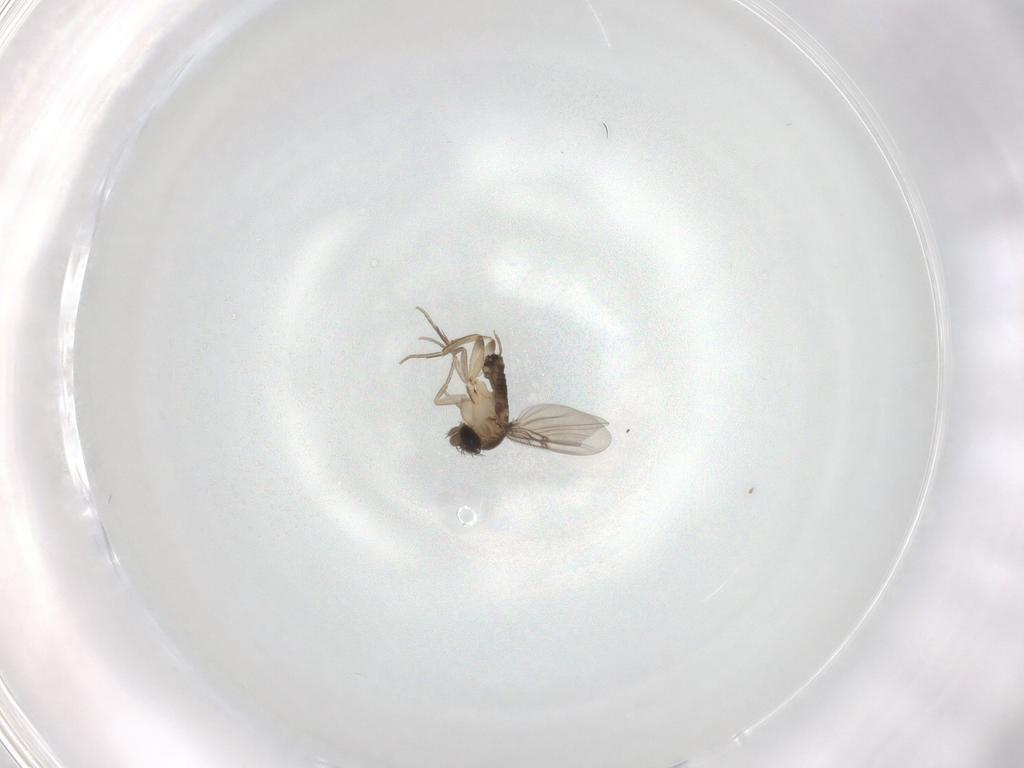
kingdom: Animalia
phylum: Arthropoda
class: Insecta
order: Diptera
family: Phoridae
